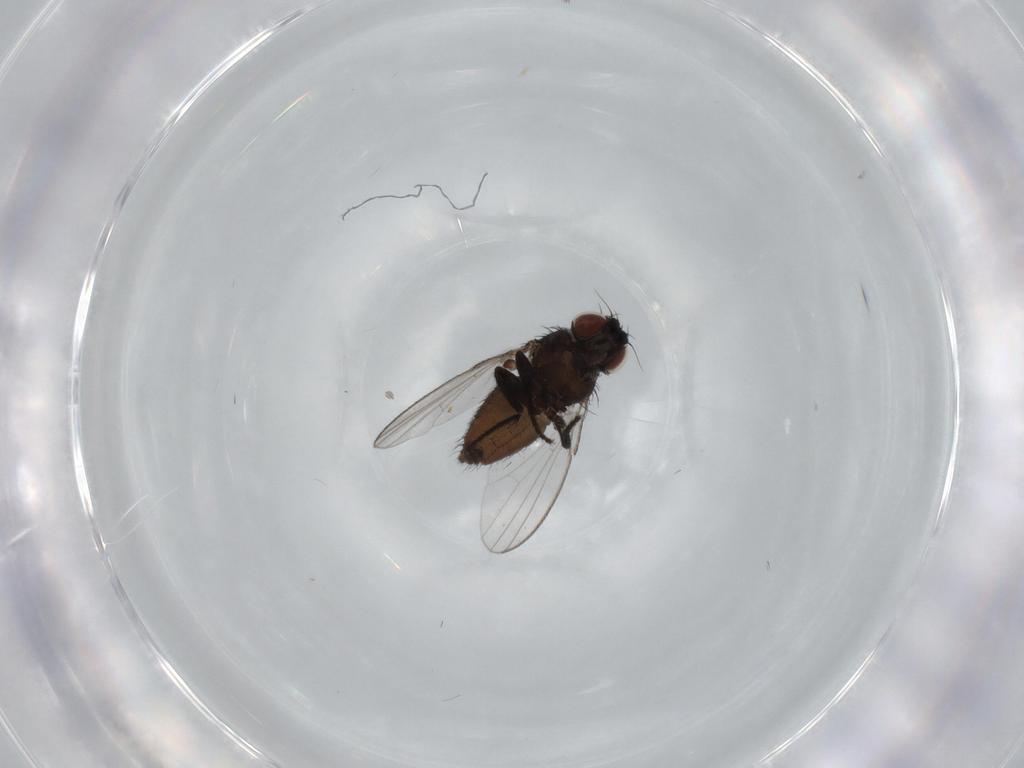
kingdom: Animalia
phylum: Arthropoda
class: Insecta
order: Diptera
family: Milichiidae
